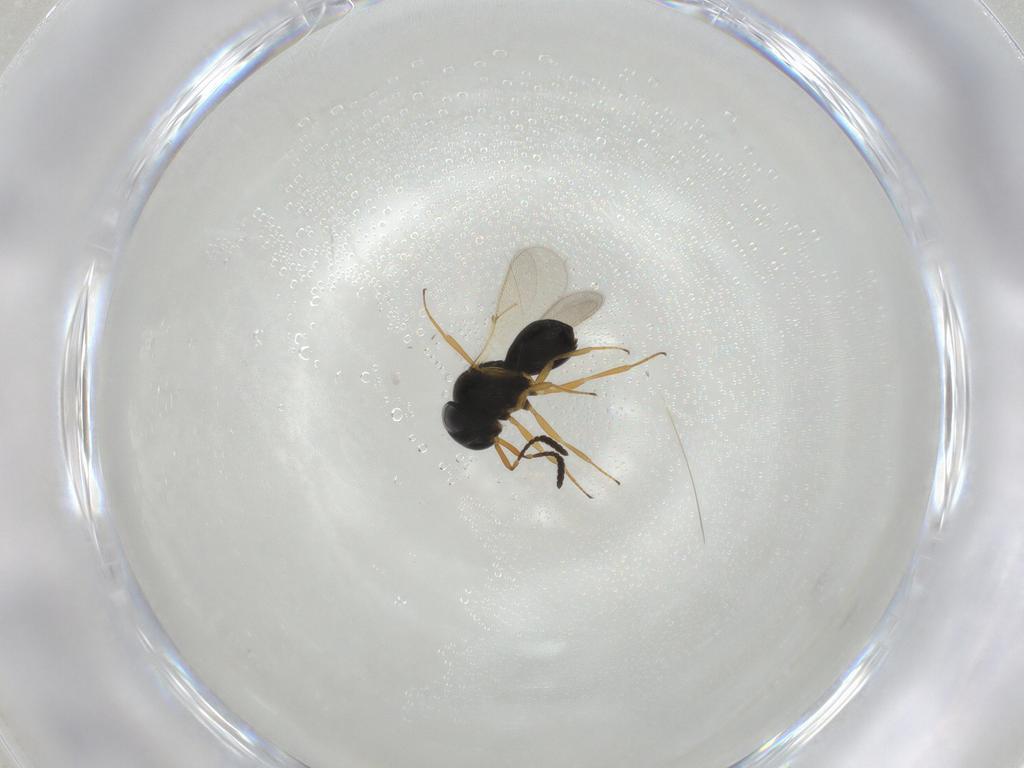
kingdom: Animalia
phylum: Arthropoda
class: Insecta
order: Hymenoptera
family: Scelionidae
